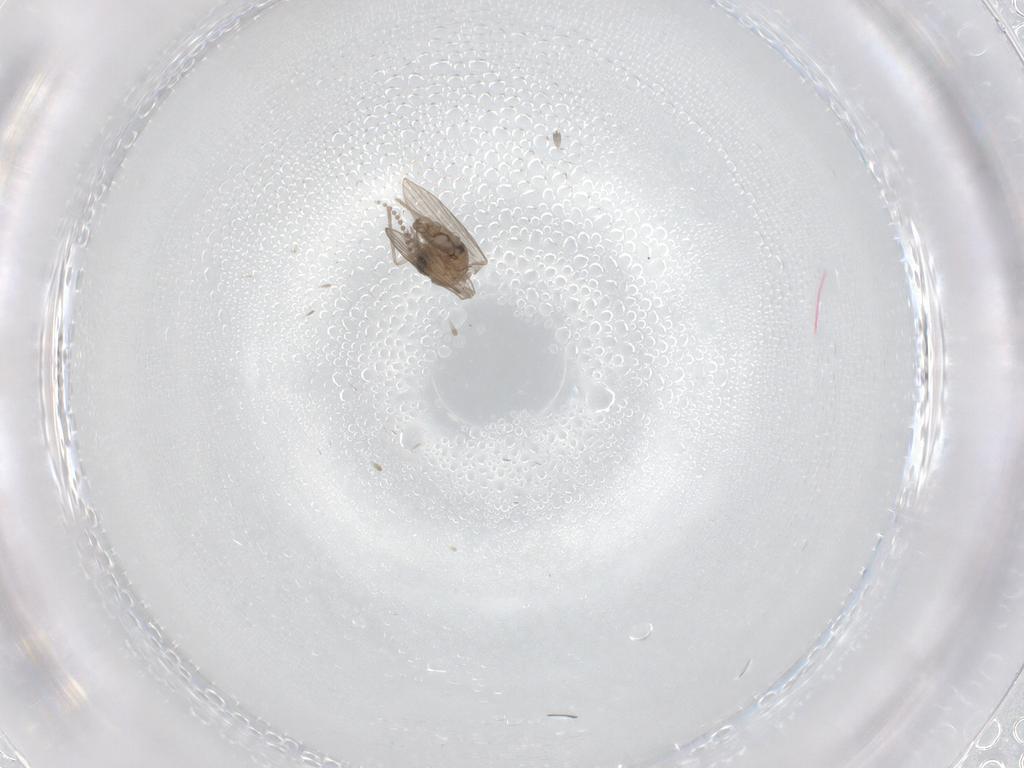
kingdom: Animalia
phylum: Arthropoda
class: Insecta
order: Diptera
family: Psychodidae
